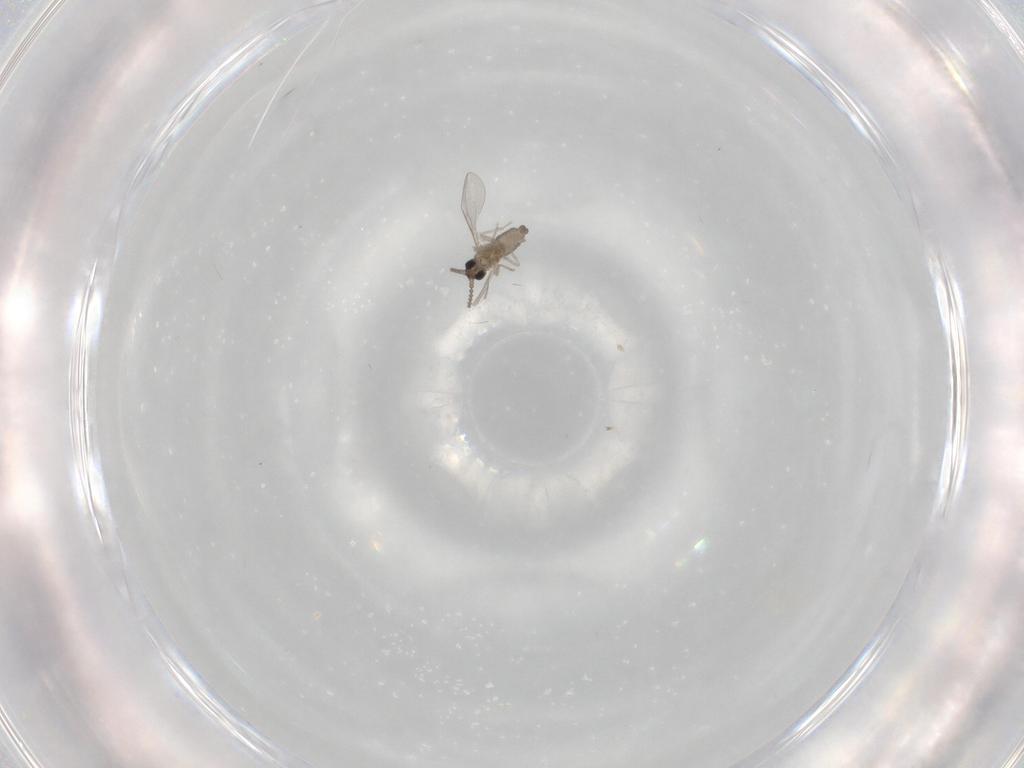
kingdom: Animalia
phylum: Arthropoda
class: Insecta
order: Diptera
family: Cecidomyiidae
